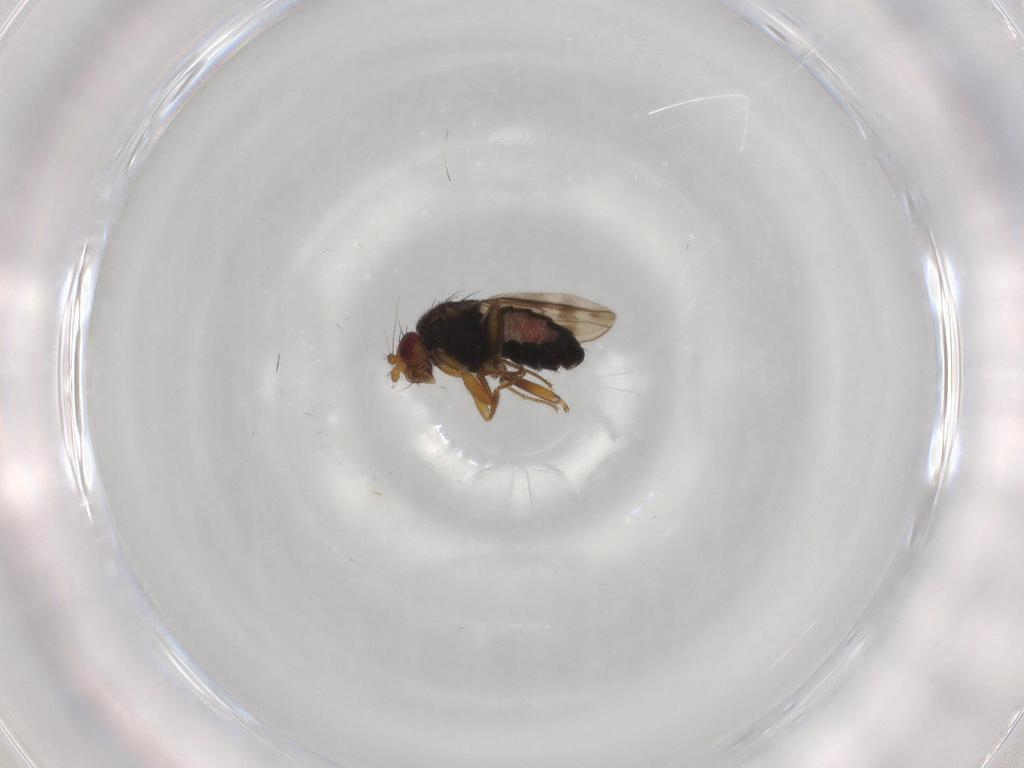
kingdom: Animalia
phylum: Arthropoda
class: Insecta
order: Diptera
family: Sphaeroceridae
